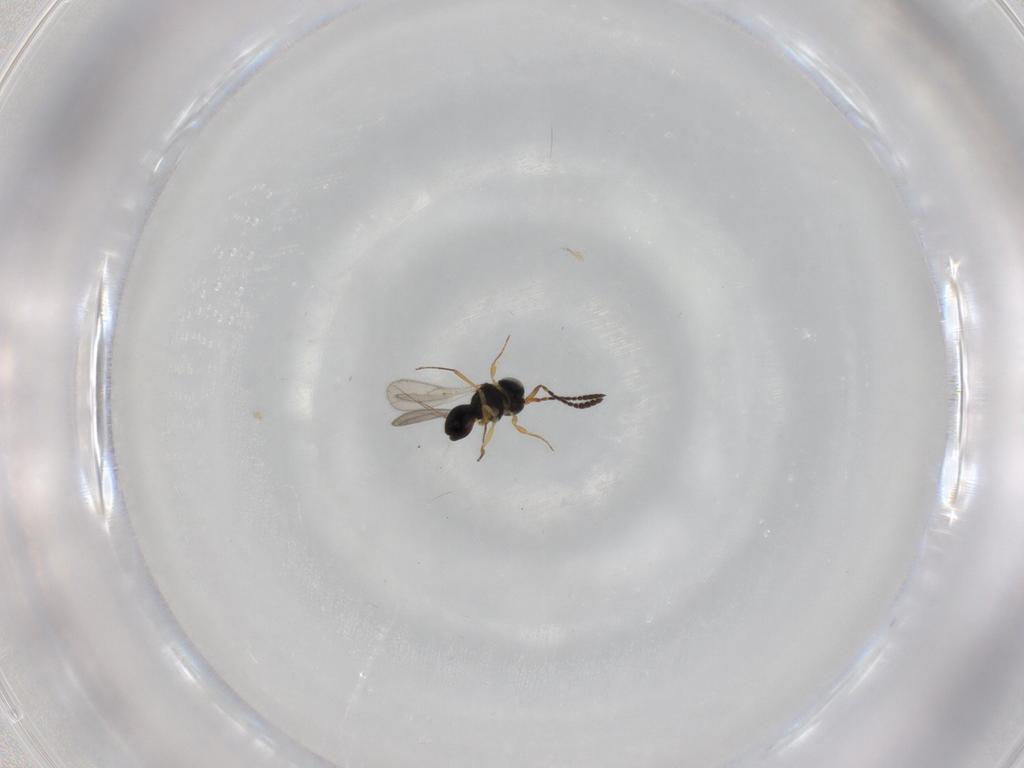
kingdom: Animalia
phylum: Arthropoda
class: Insecta
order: Hymenoptera
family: Scelionidae
